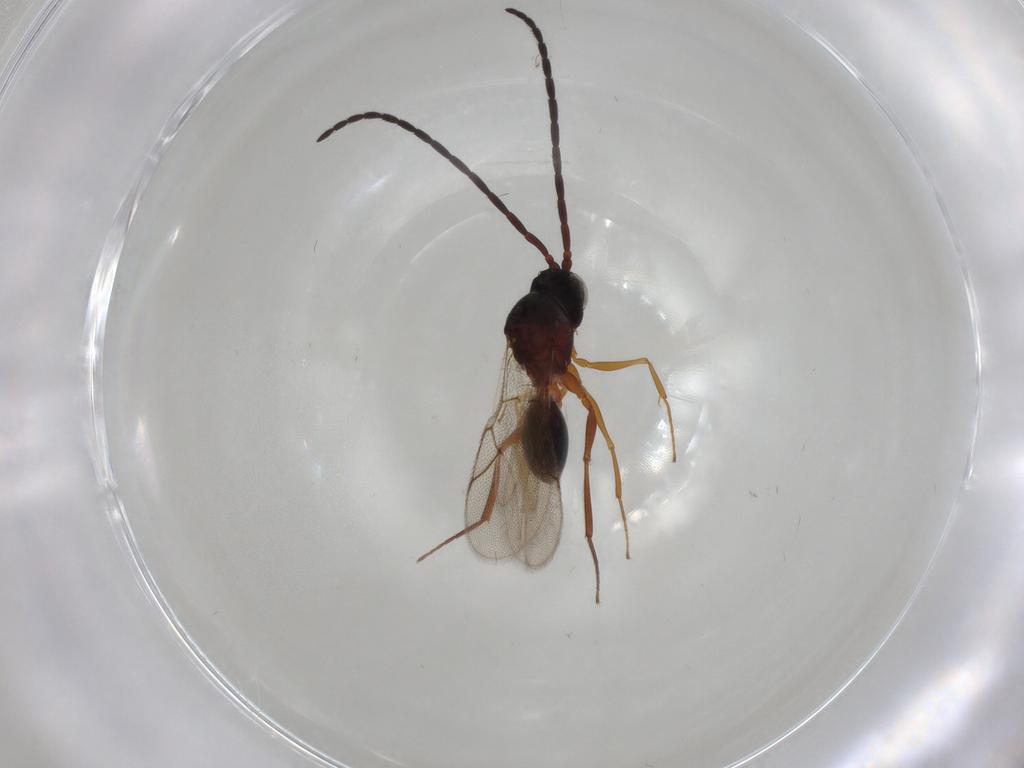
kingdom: Animalia
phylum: Arthropoda
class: Insecta
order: Hymenoptera
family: Figitidae
